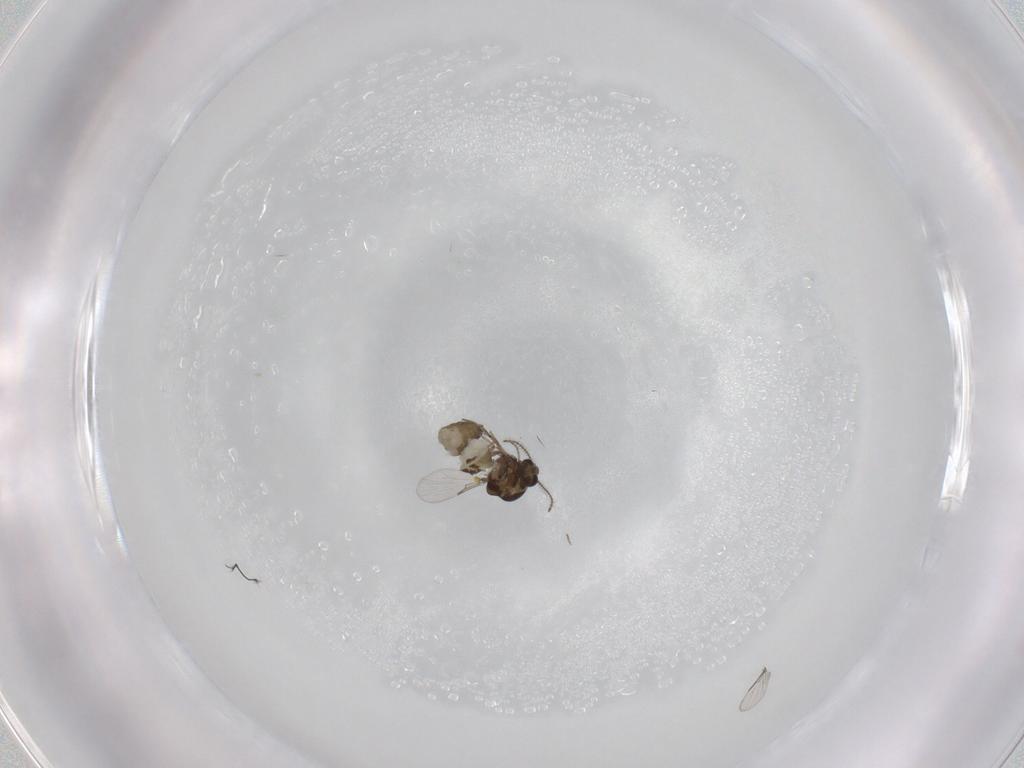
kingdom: Animalia
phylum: Arthropoda
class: Insecta
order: Diptera
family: Ceratopogonidae
